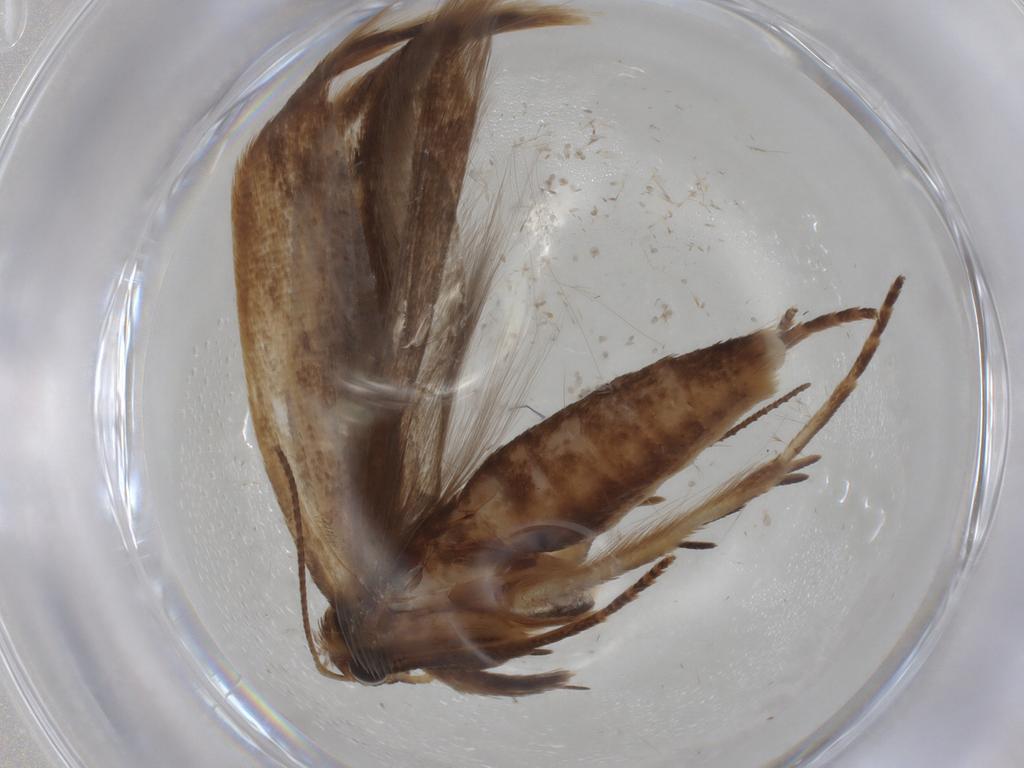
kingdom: Animalia
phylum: Arthropoda
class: Insecta
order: Lepidoptera
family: Gelechiidae
